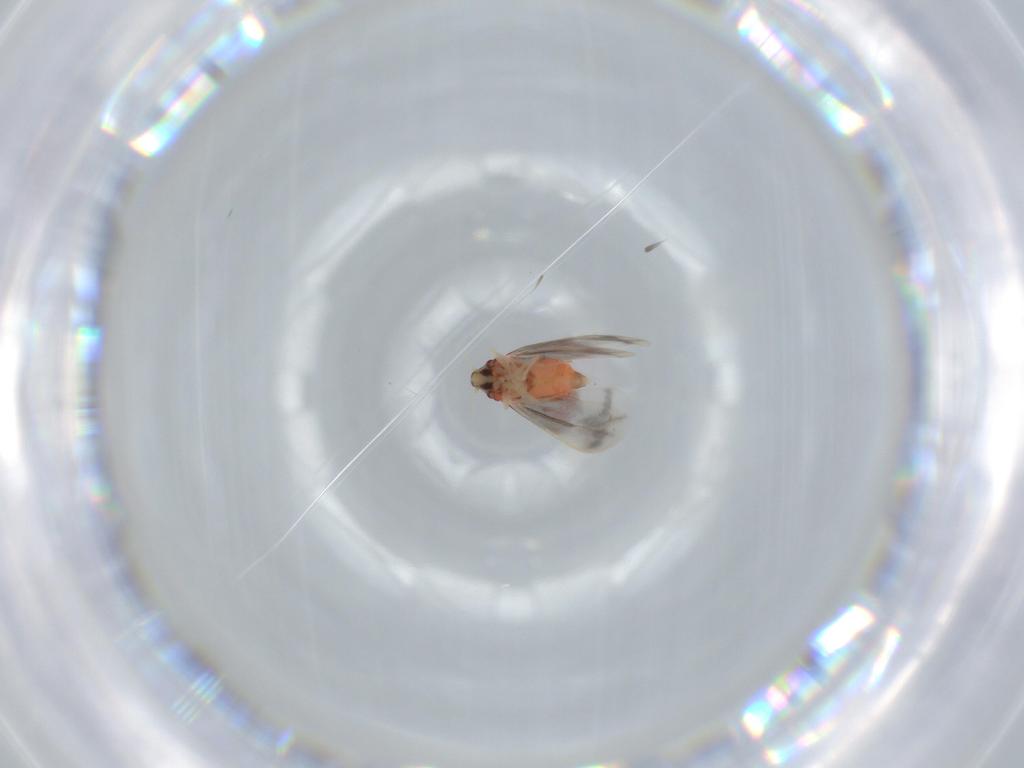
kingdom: Animalia
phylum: Arthropoda
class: Insecta
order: Hemiptera
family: Aleyrodidae
